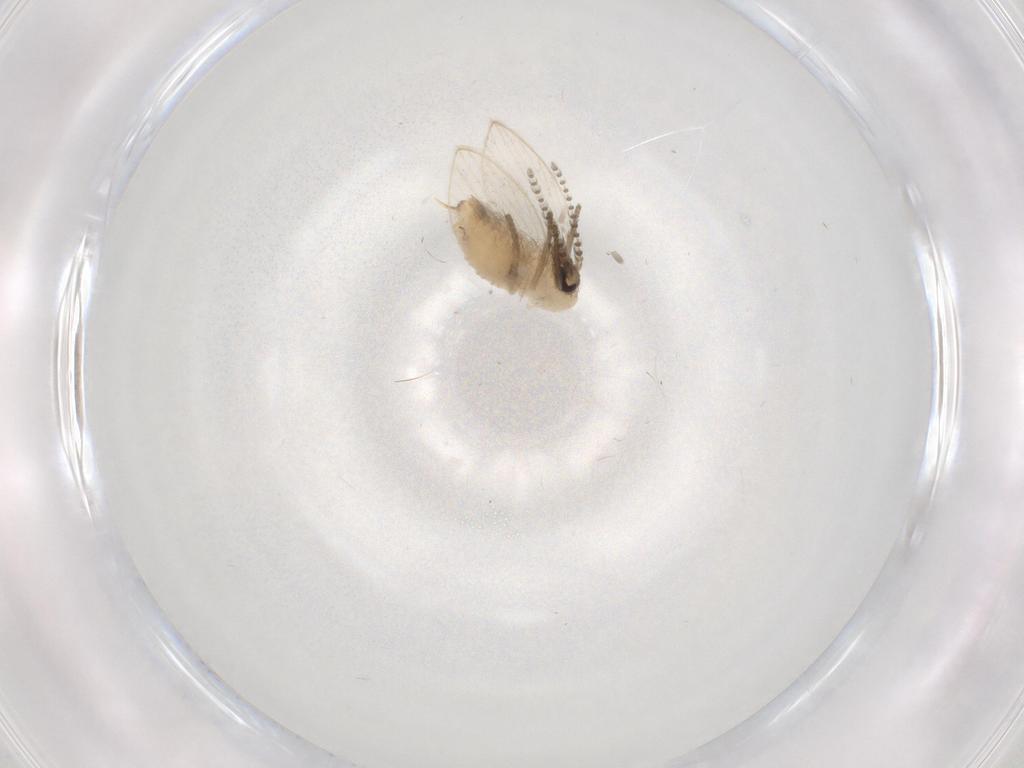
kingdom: Animalia
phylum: Arthropoda
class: Insecta
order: Diptera
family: Psychodidae
